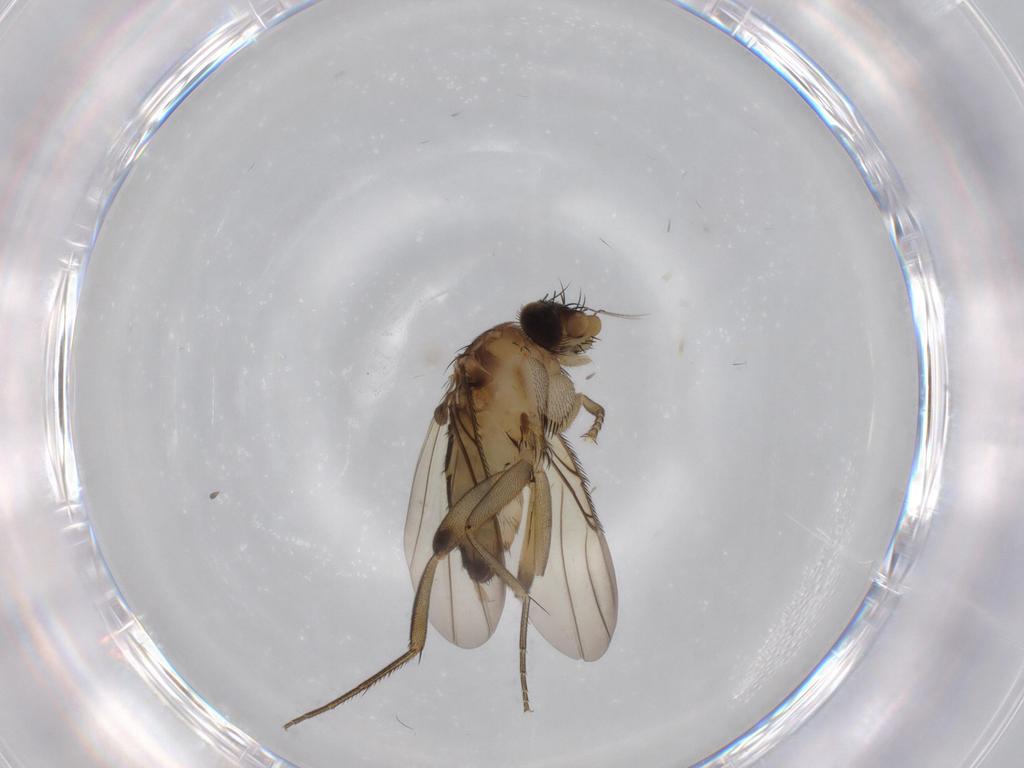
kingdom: Animalia
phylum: Arthropoda
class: Insecta
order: Diptera
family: Phoridae
